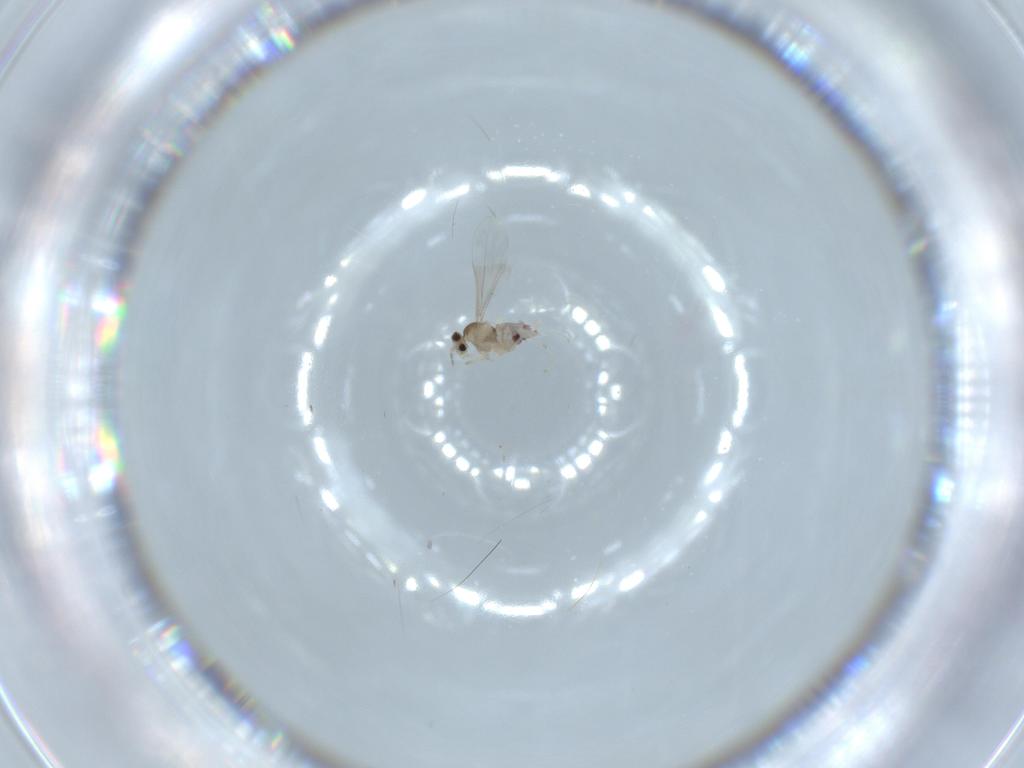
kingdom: Animalia
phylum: Arthropoda
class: Insecta
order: Diptera
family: Cecidomyiidae
